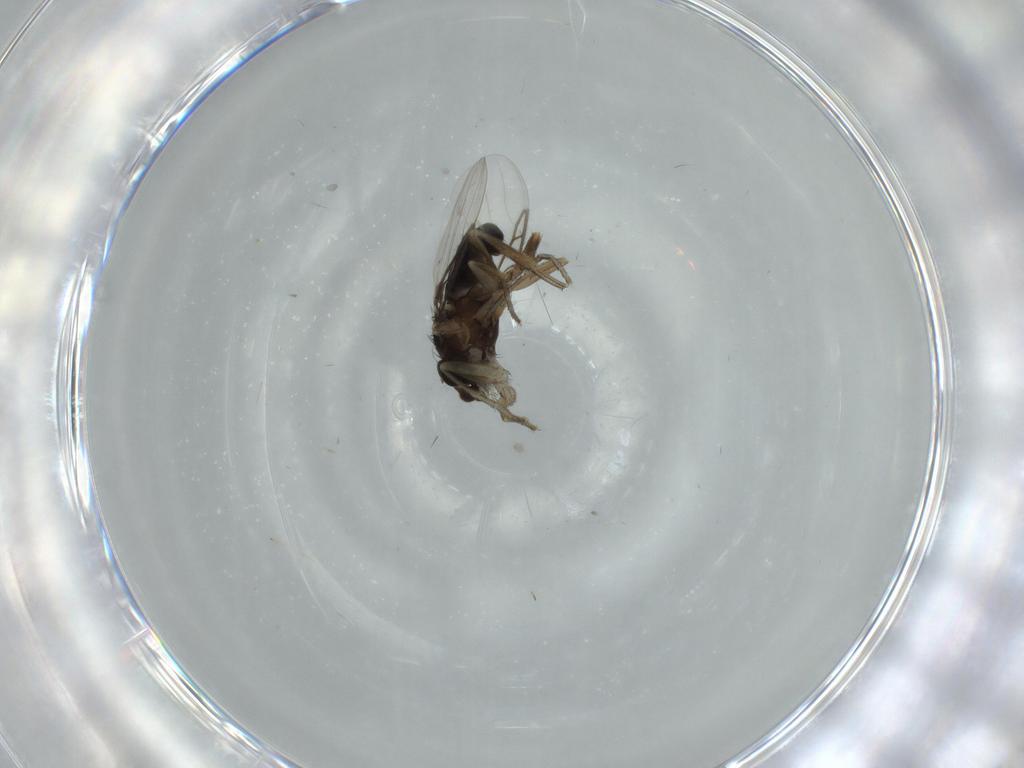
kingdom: Animalia
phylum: Arthropoda
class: Insecta
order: Diptera
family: Phoridae
